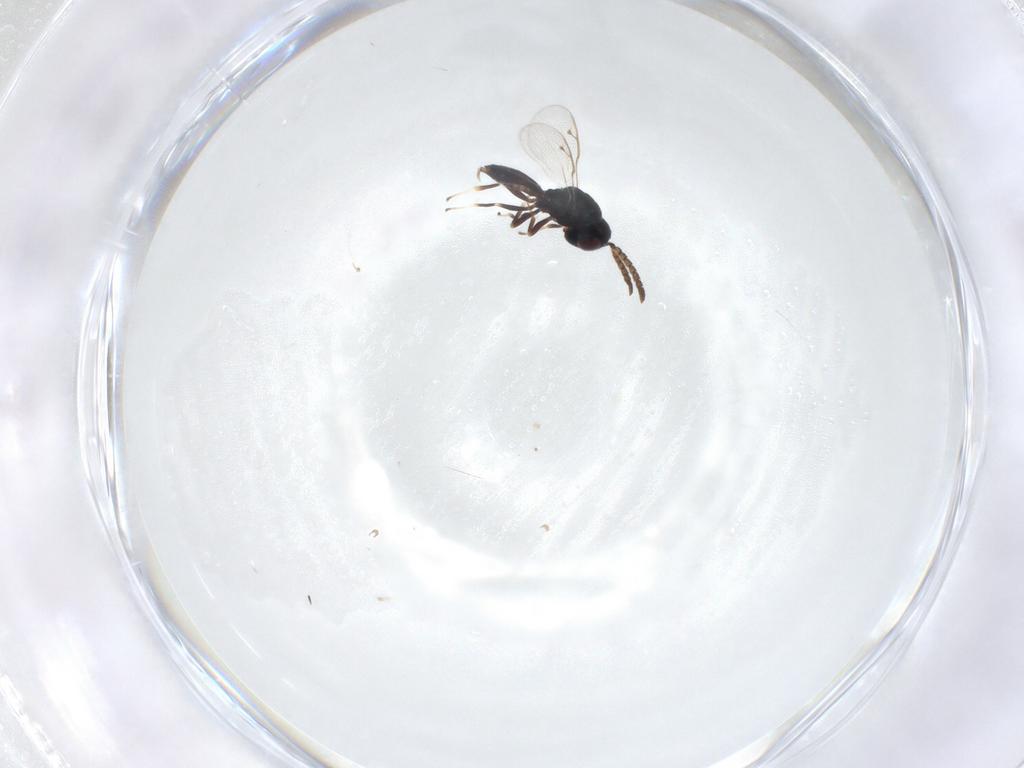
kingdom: Animalia
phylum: Arthropoda
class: Insecta
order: Hymenoptera
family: Pteromalidae
